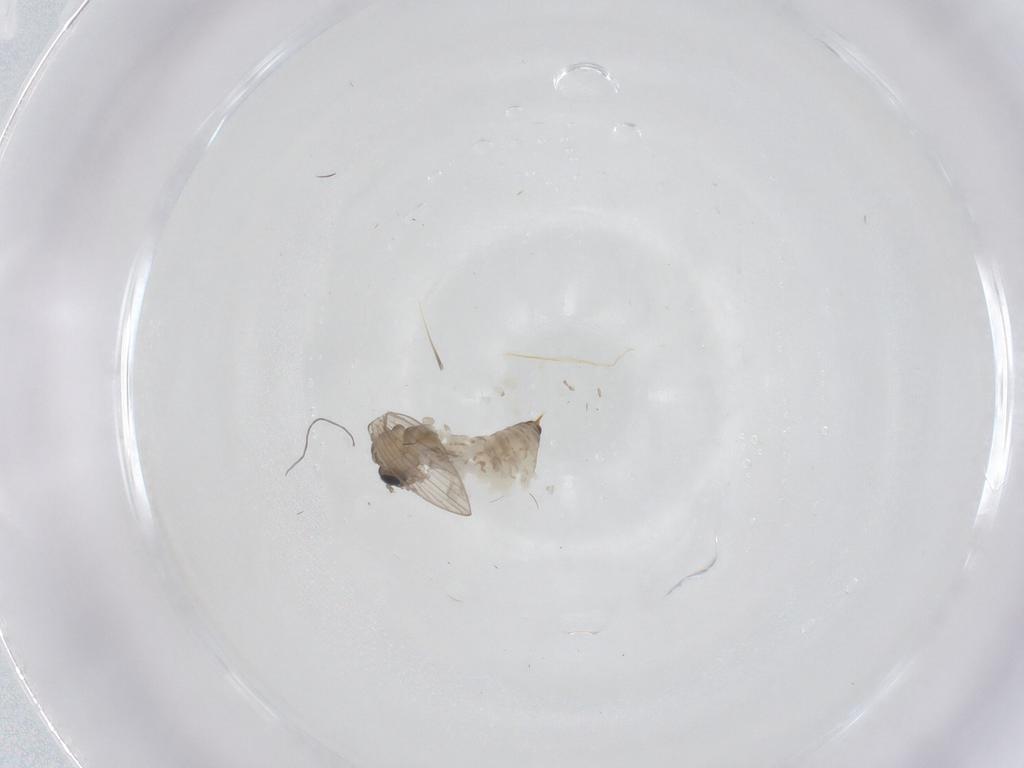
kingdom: Animalia
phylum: Arthropoda
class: Insecta
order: Diptera
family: Psychodidae
